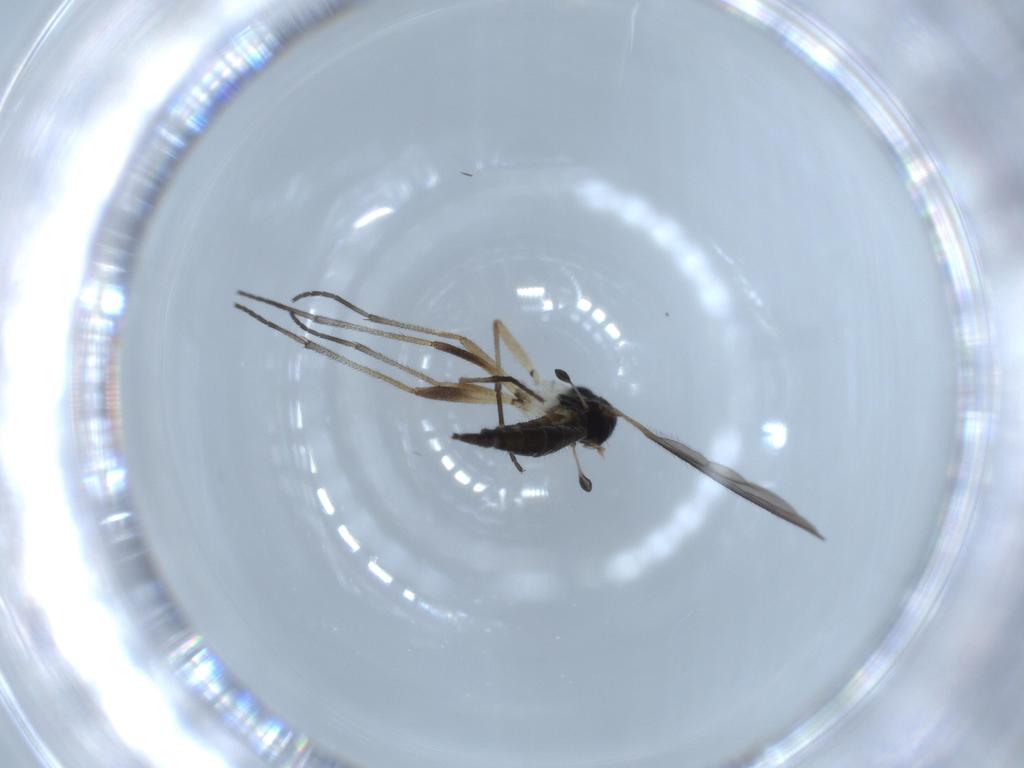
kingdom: Animalia
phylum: Arthropoda
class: Insecta
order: Diptera
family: Sciaridae
